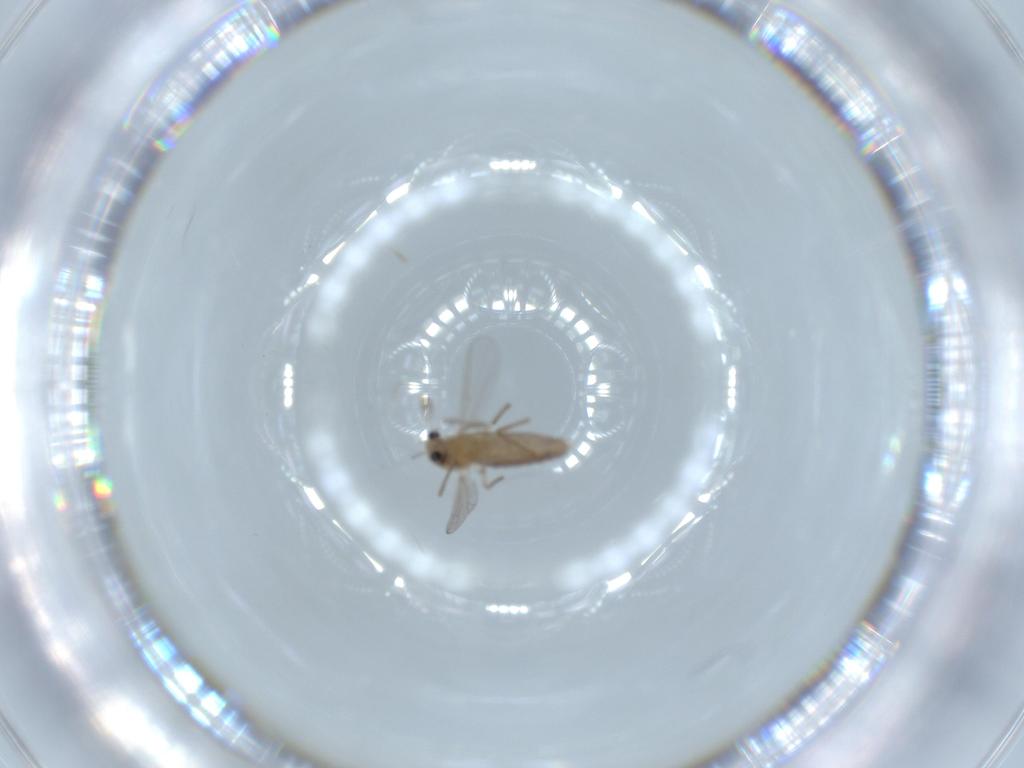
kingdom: Animalia
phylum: Arthropoda
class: Insecta
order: Diptera
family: Chironomidae
